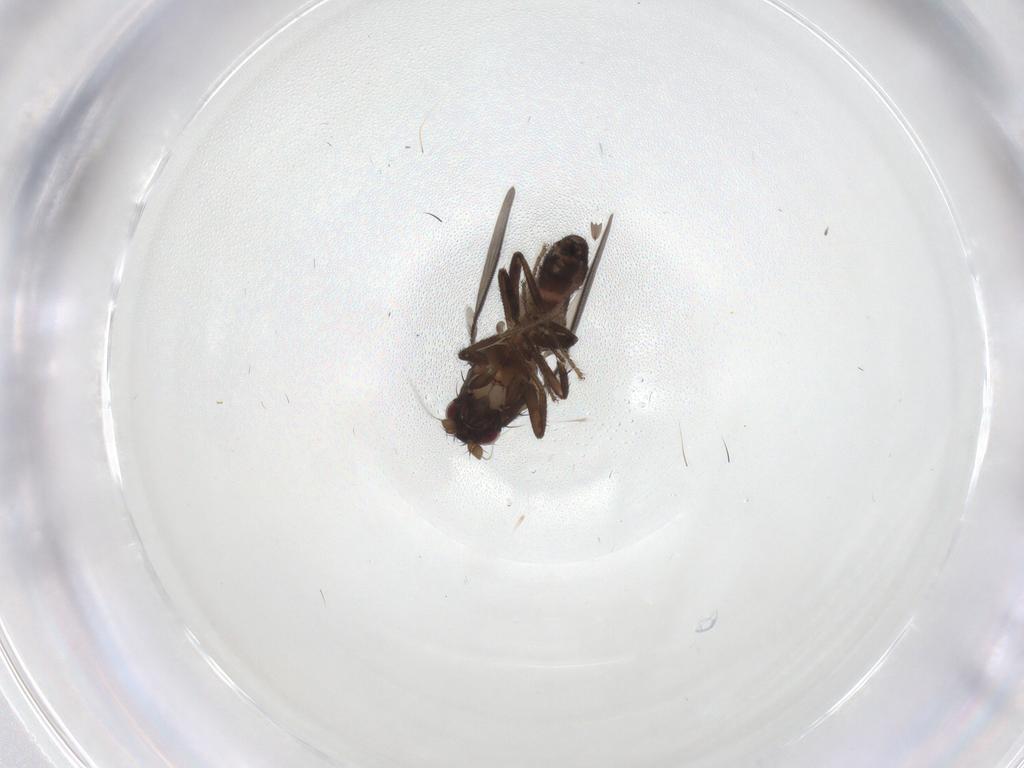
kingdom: Animalia
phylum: Arthropoda
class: Insecta
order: Diptera
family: Sphaeroceridae
